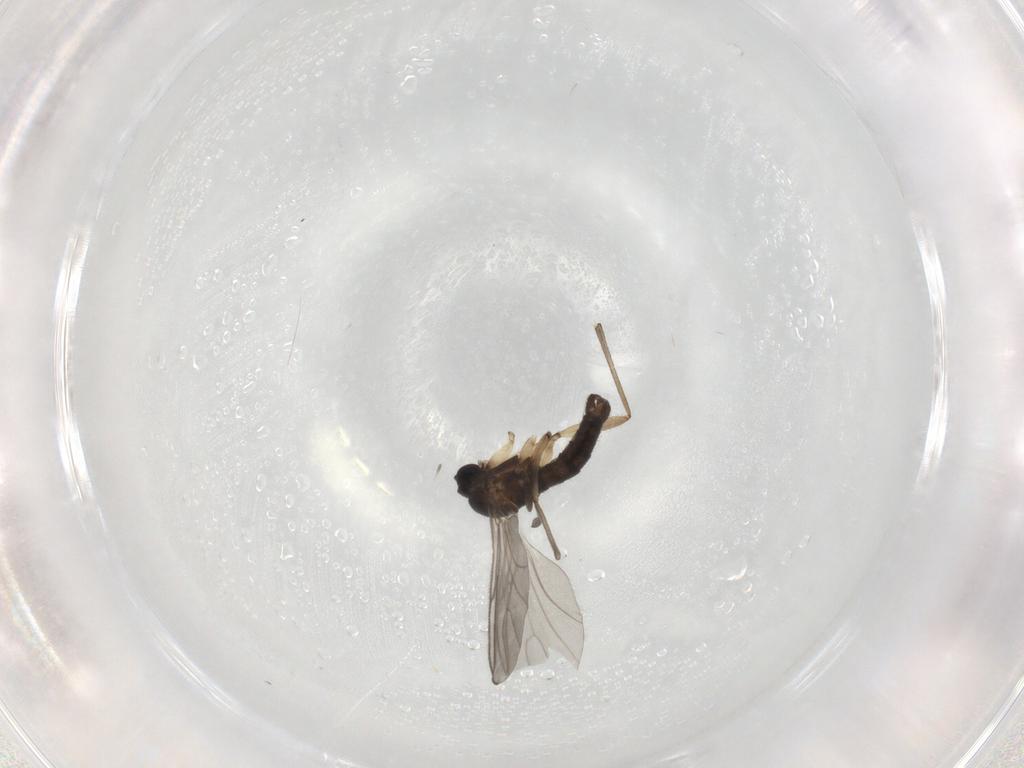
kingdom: Animalia
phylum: Arthropoda
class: Insecta
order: Diptera
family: Sciaridae
